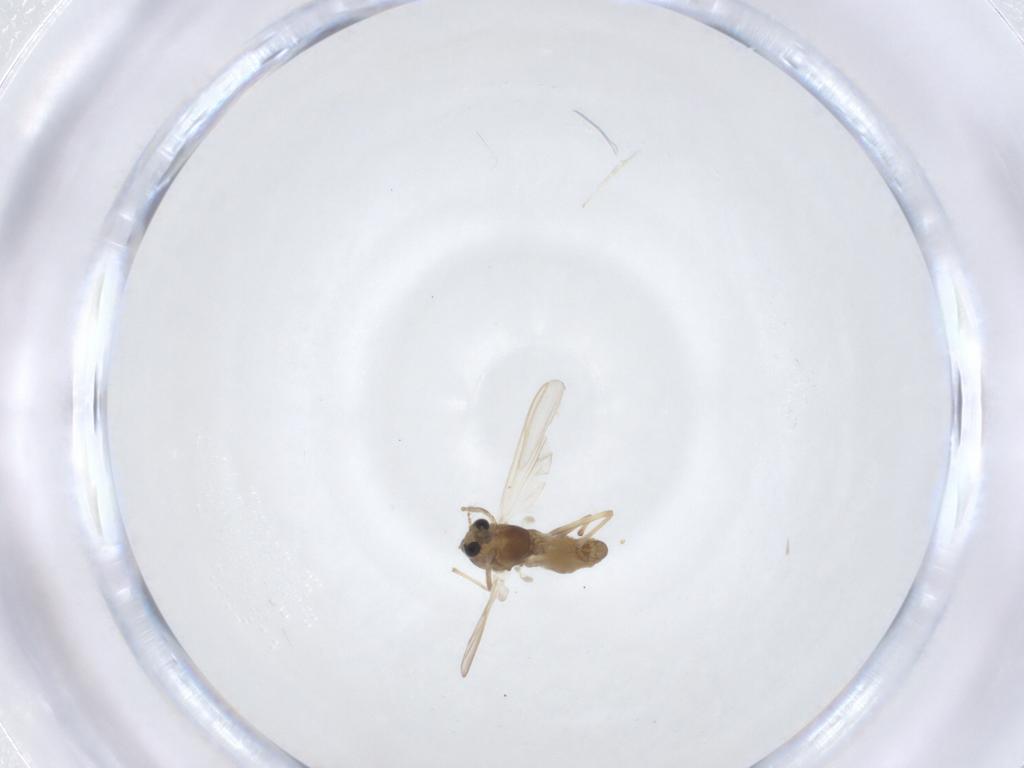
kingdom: Animalia
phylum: Arthropoda
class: Insecta
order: Diptera
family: Chironomidae
